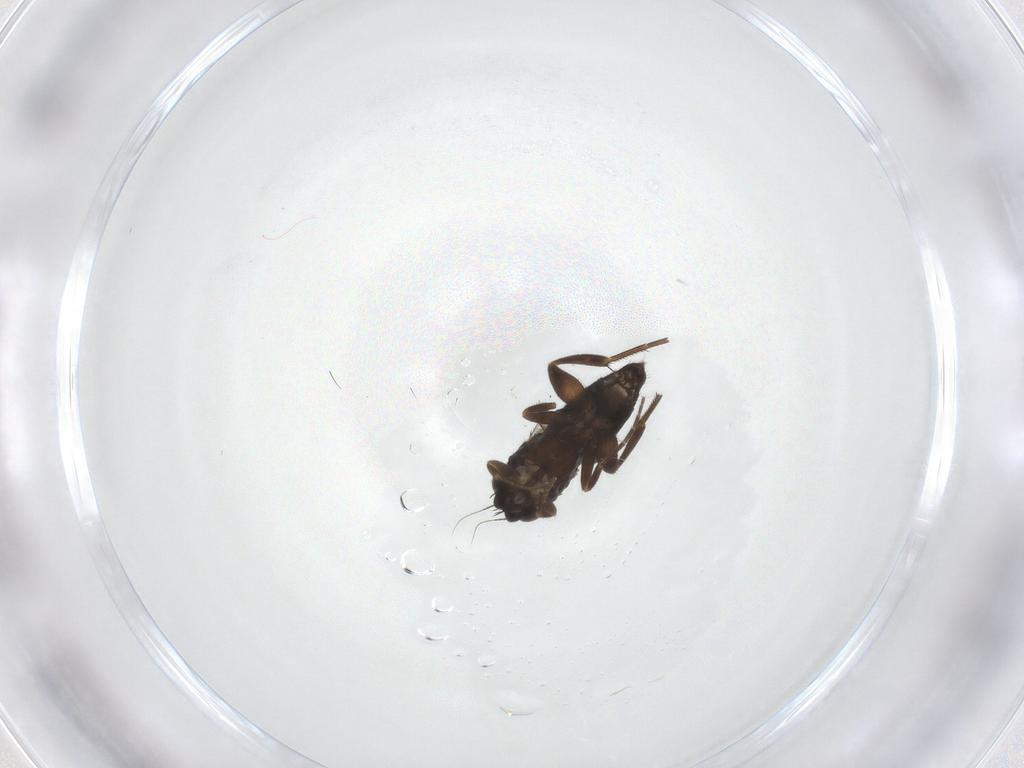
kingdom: Animalia
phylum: Arthropoda
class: Insecta
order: Diptera
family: Phoridae
